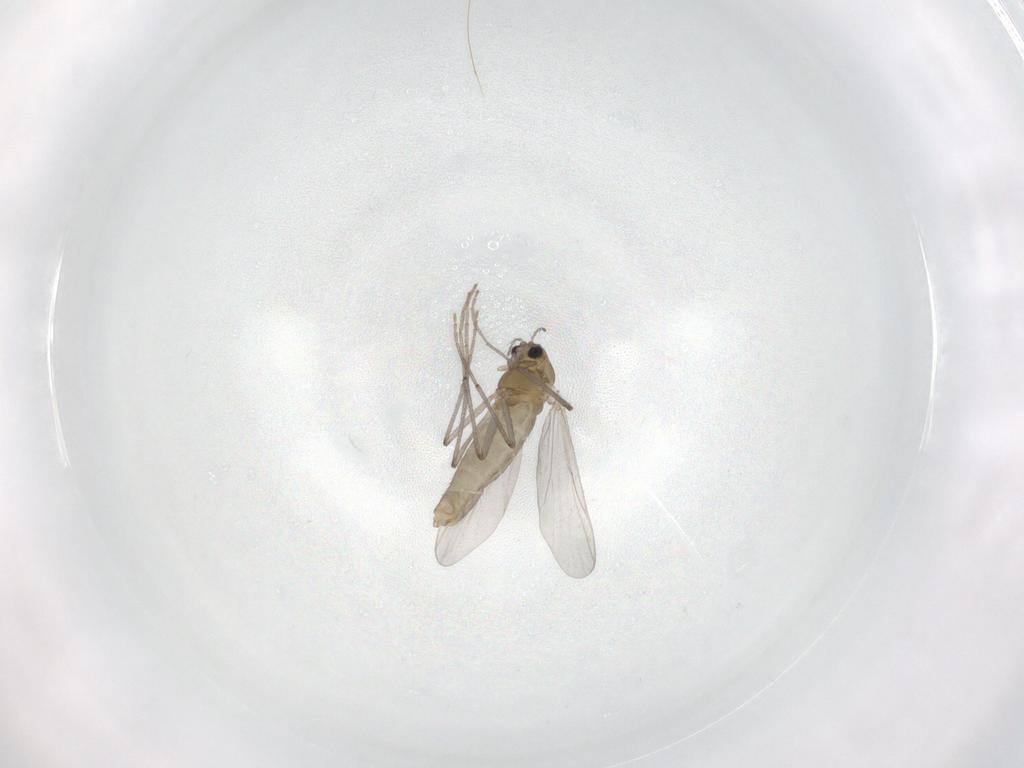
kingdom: Animalia
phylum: Arthropoda
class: Insecta
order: Diptera
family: Chironomidae
